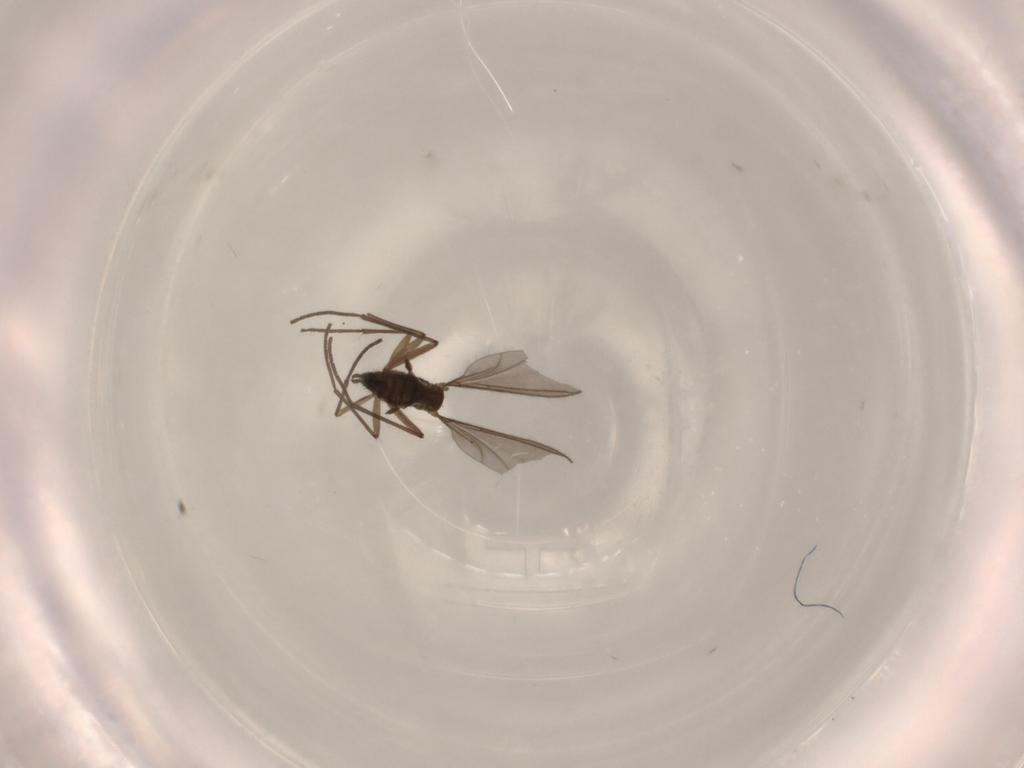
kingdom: Animalia
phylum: Arthropoda
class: Insecta
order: Diptera
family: Sciaridae
